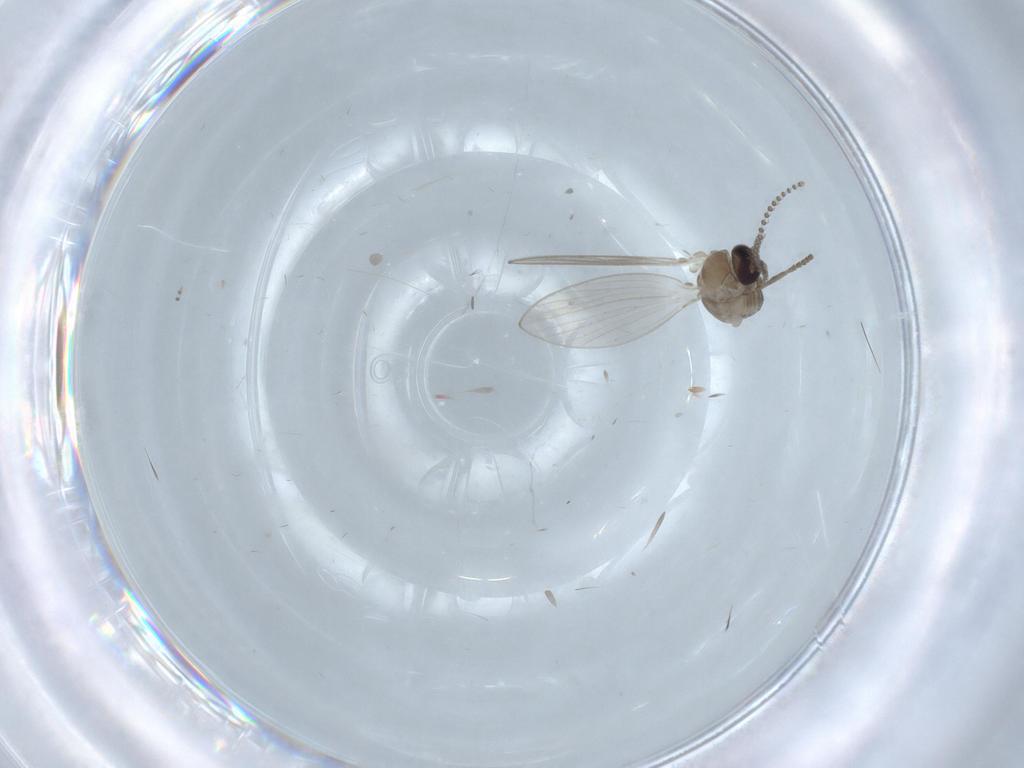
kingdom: Animalia
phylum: Arthropoda
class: Insecta
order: Diptera
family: Psychodidae
